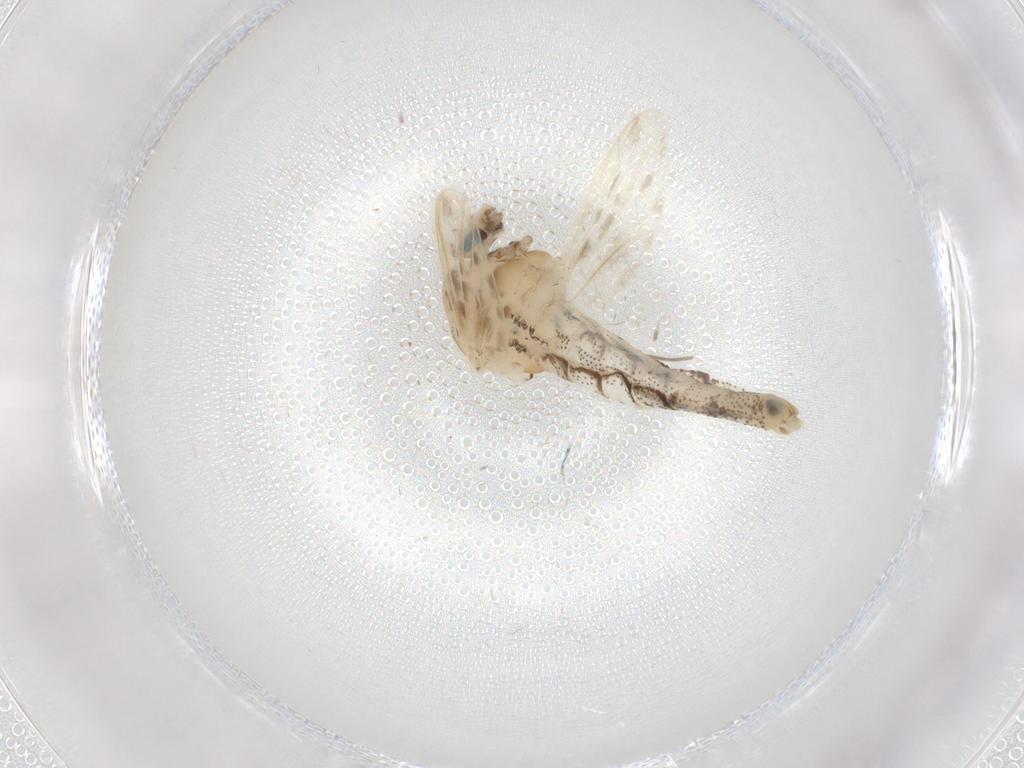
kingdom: Animalia
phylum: Arthropoda
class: Insecta
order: Diptera
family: Chaoboridae
